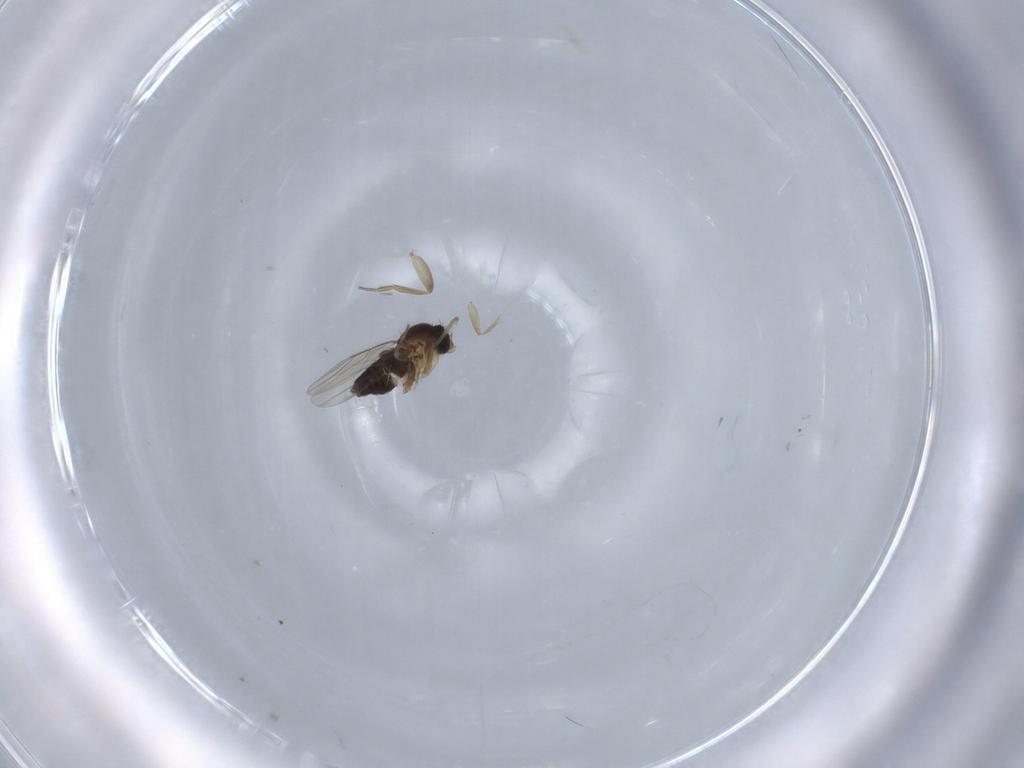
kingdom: Animalia
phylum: Arthropoda
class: Insecta
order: Diptera
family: Phoridae
